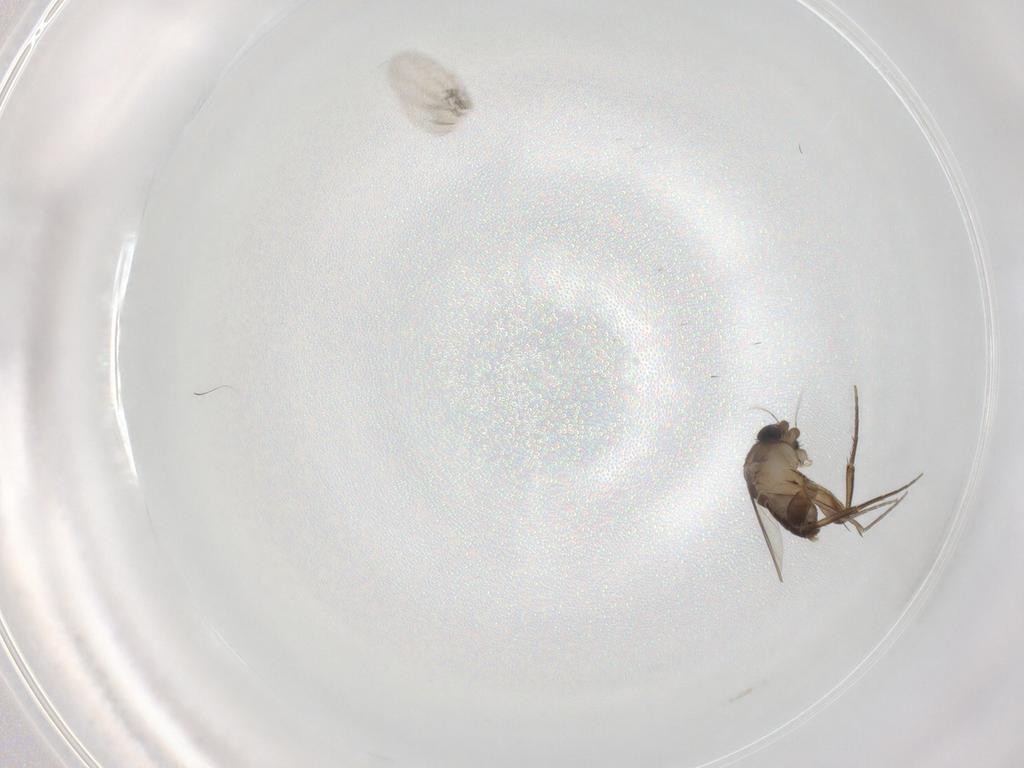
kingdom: Animalia
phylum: Arthropoda
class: Insecta
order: Diptera
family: Phoridae
